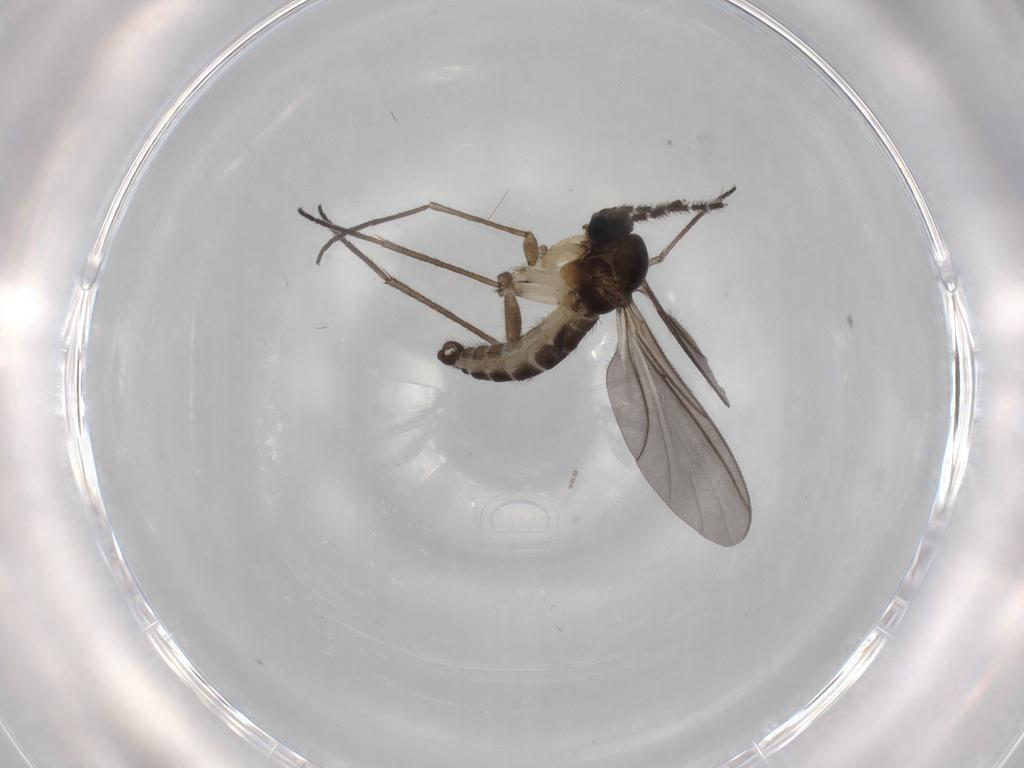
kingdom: Animalia
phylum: Arthropoda
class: Insecta
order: Diptera
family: Sciaridae
